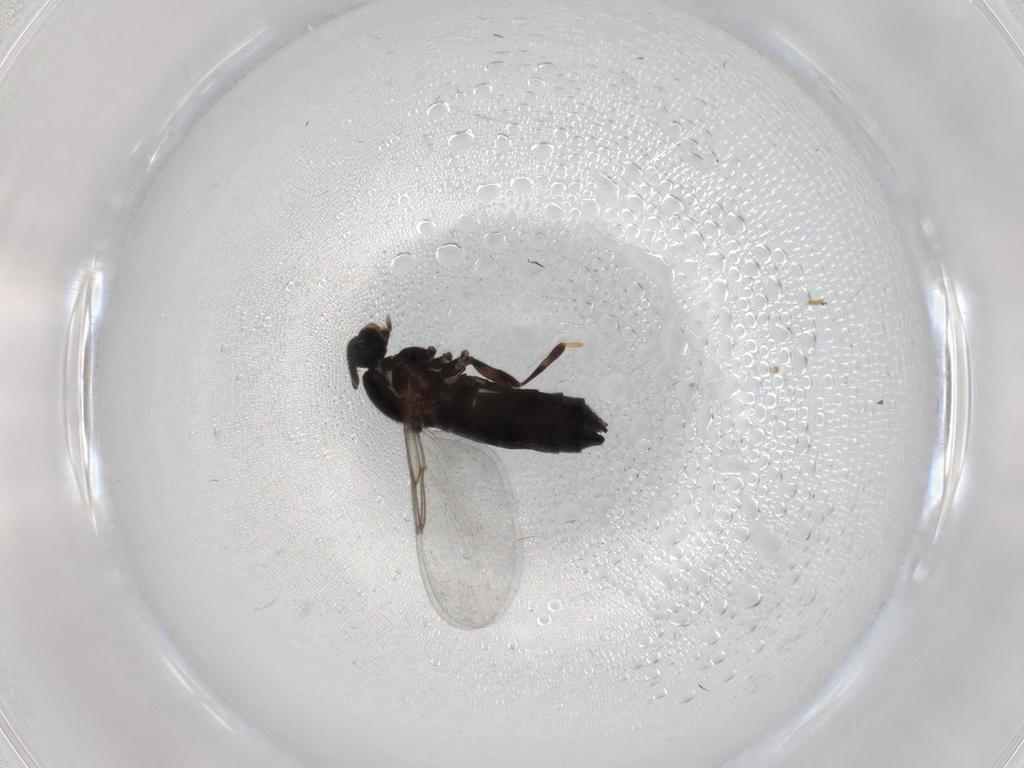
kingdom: Animalia
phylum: Arthropoda
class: Insecta
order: Diptera
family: Scatopsidae
